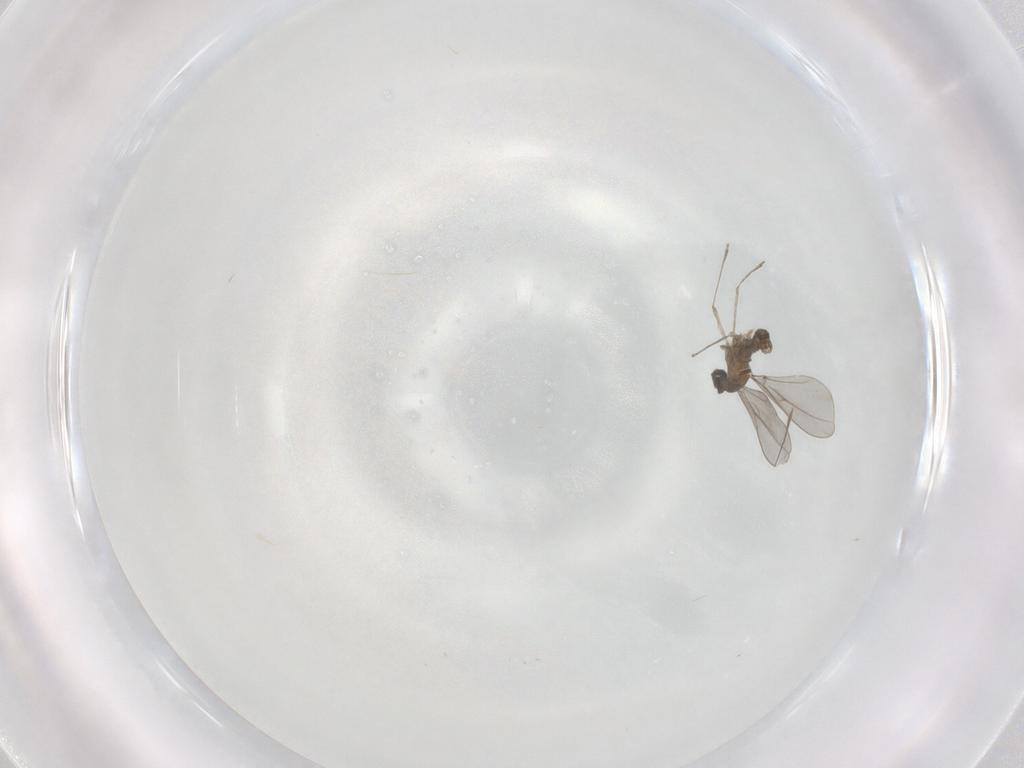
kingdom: Animalia
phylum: Arthropoda
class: Insecta
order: Diptera
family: Cecidomyiidae
